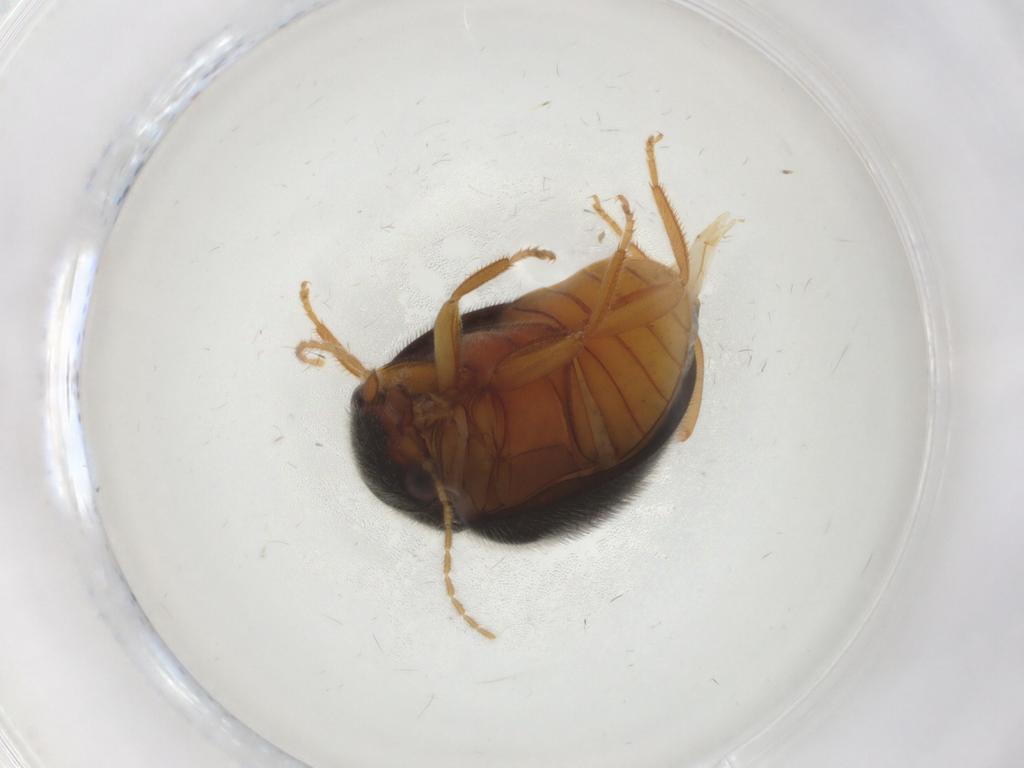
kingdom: Animalia
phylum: Arthropoda
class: Insecta
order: Coleoptera
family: Scirtidae
